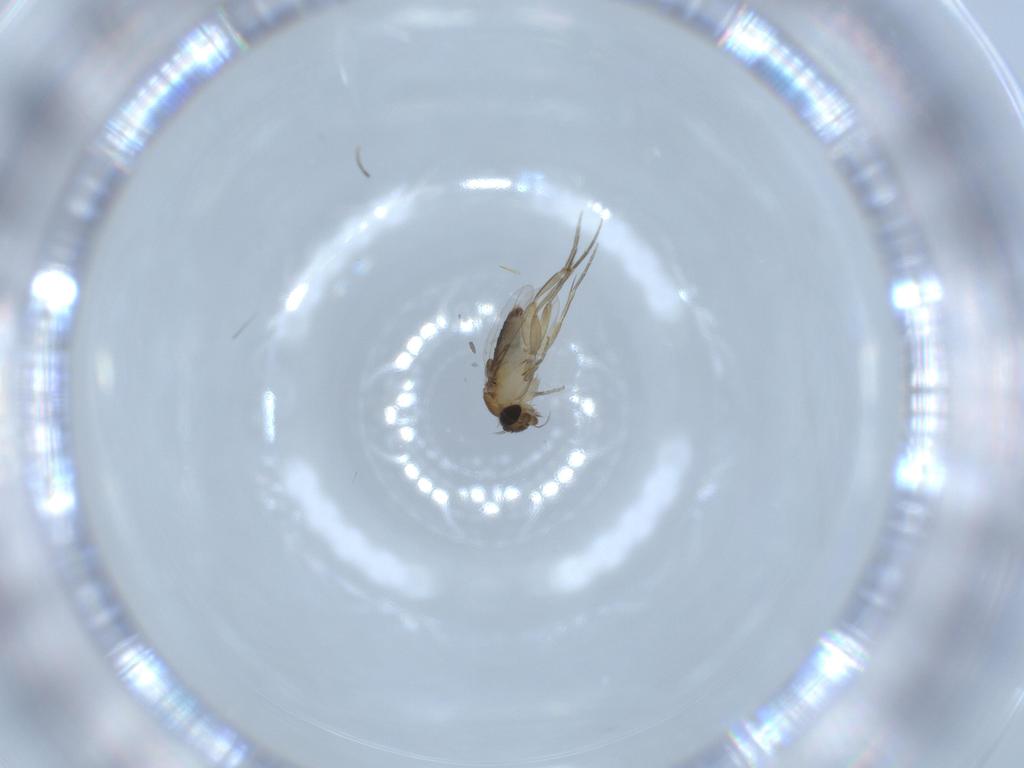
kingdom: Animalia
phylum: Arthropoda
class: Insecta
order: Diptera
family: Phoridae
